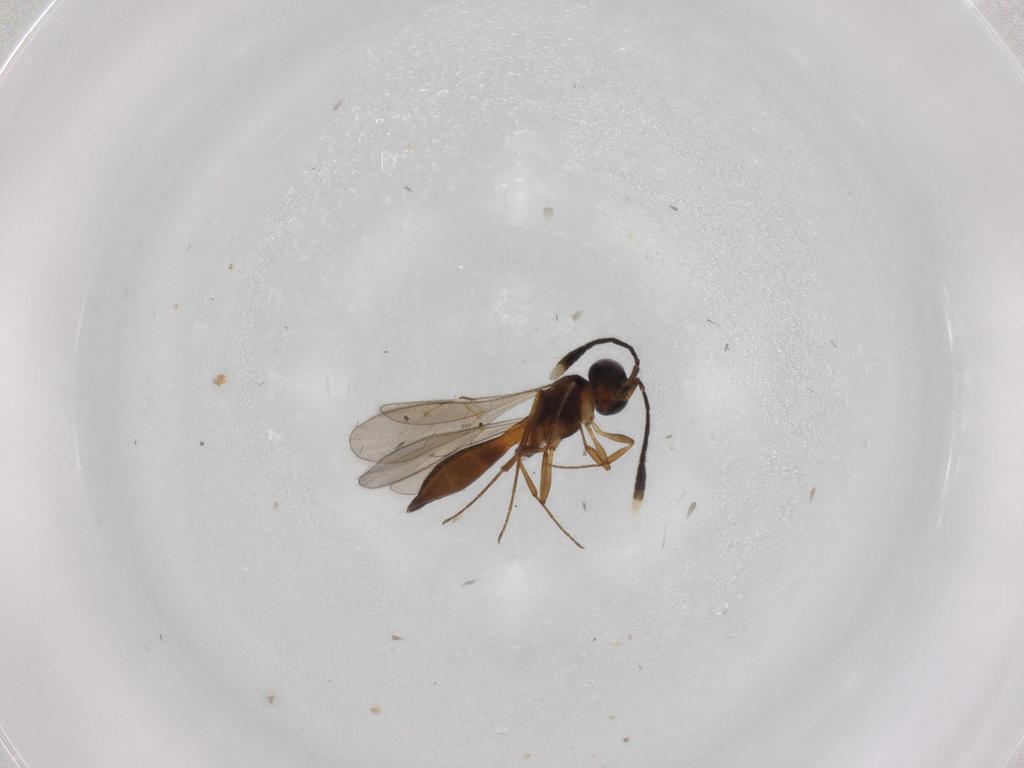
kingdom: Animalia
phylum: Arthropoda
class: Insecta
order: Hymenoptera
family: Scelionidae
